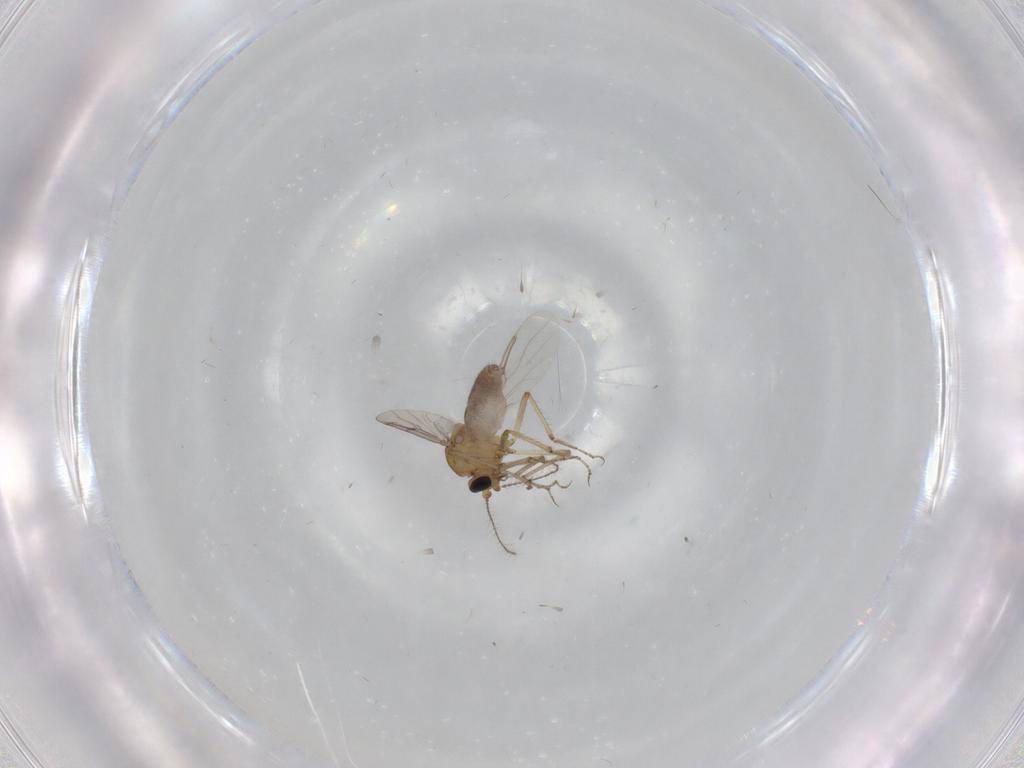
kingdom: Animalia
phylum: Arthropoda
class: Insecta
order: Diptera
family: Ceratopogonidae
